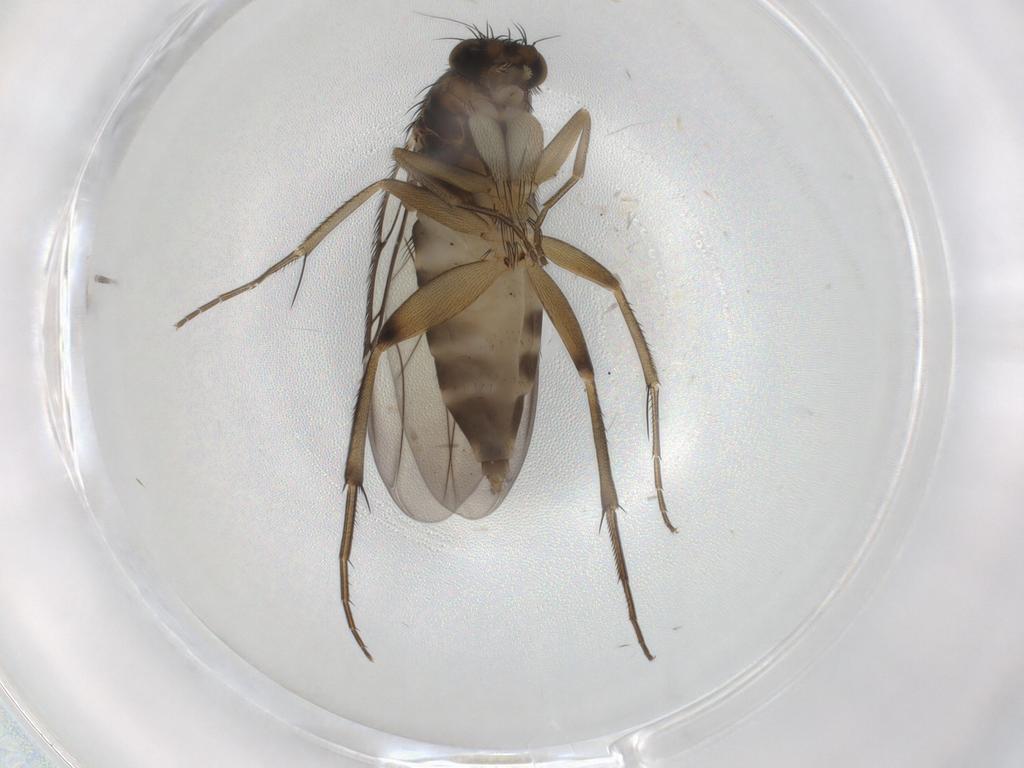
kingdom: Animalia
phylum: Arthropoda
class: Insecta
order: Diptera
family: Phoridae
